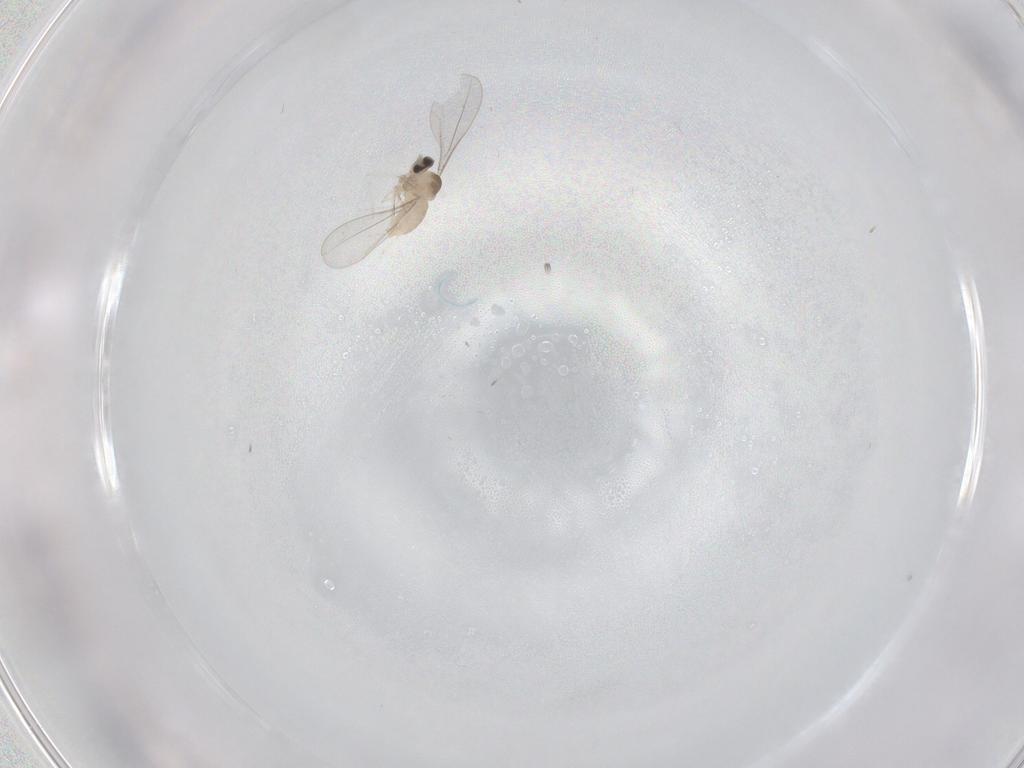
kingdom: Animalia
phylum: Arthropoda
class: Insecta
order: Diptera
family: Cecidomyiidae
